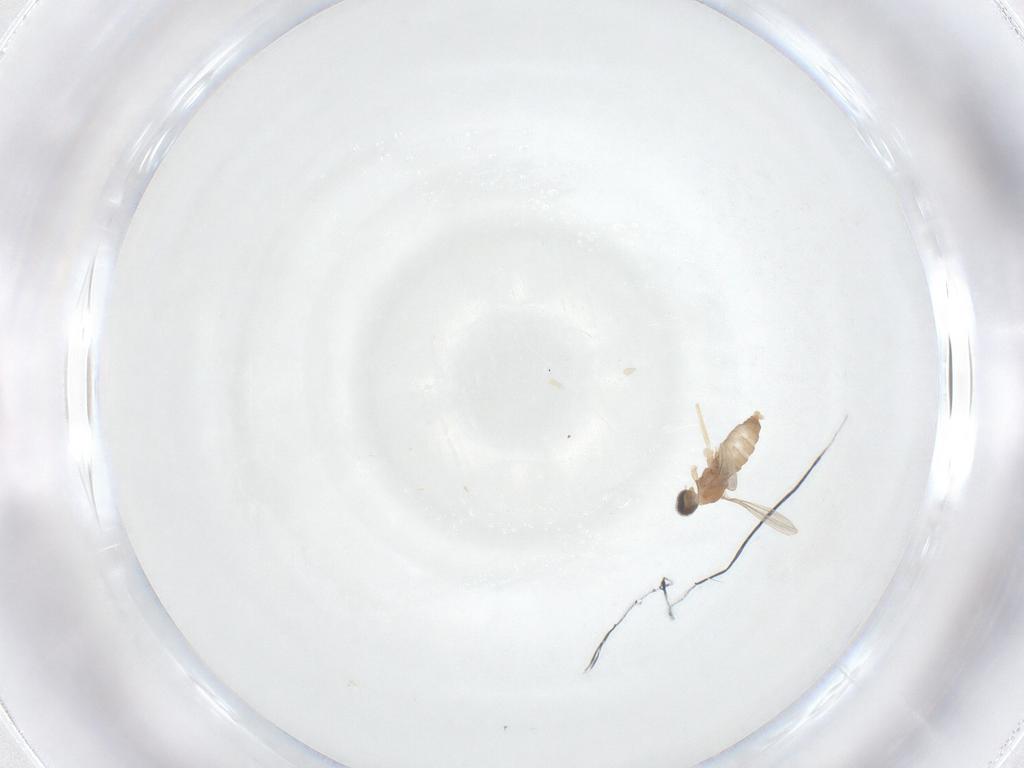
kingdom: Animalia
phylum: Arthropoda
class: Insecta
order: Diptera
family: Cecidomyiidae
